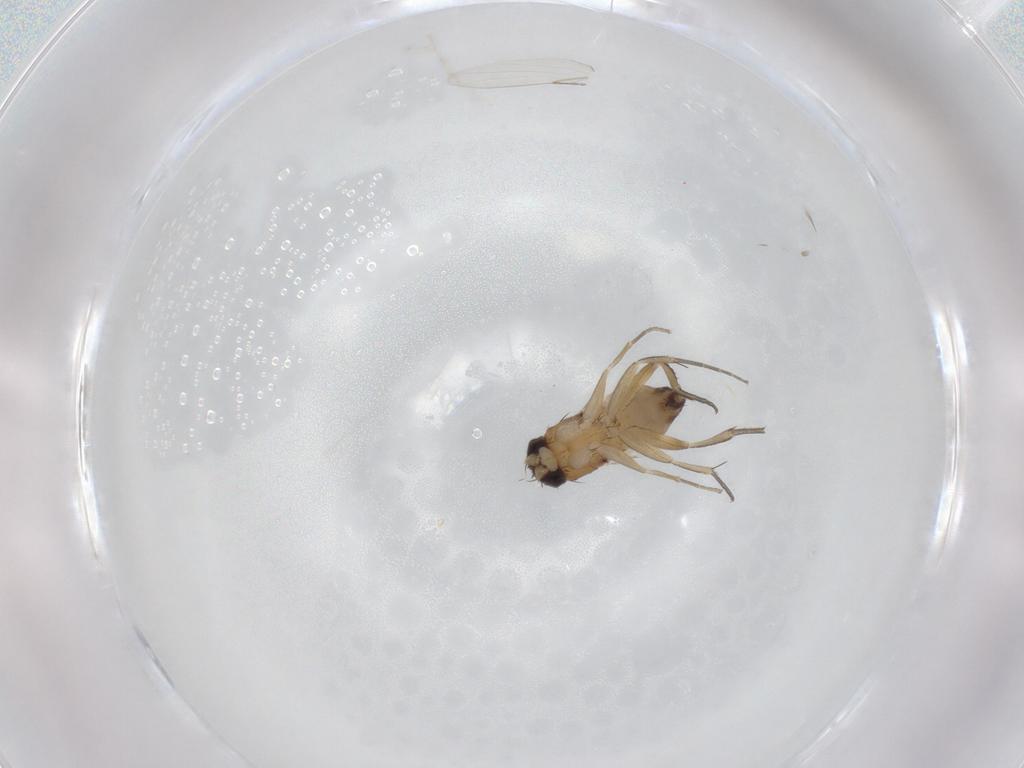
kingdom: Animalia
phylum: Arthropoda
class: Insecta
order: Diptera
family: Phoridae
